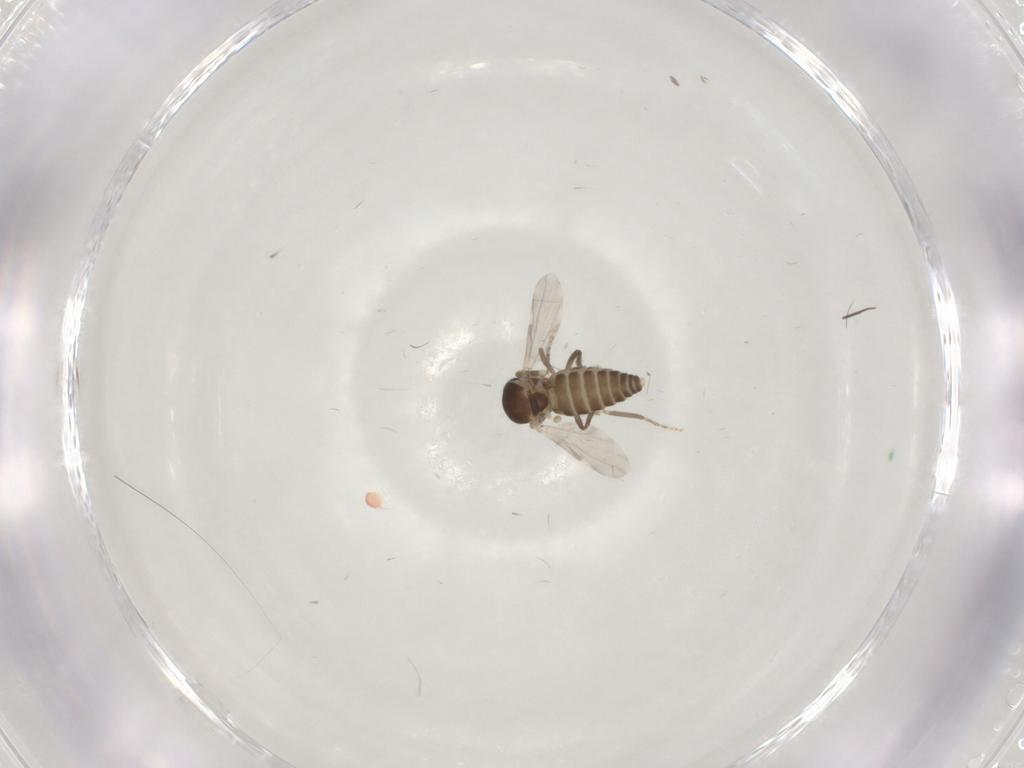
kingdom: Animalia
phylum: Arthropoda
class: Insecta
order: Diptera
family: Ceratopogonidae
